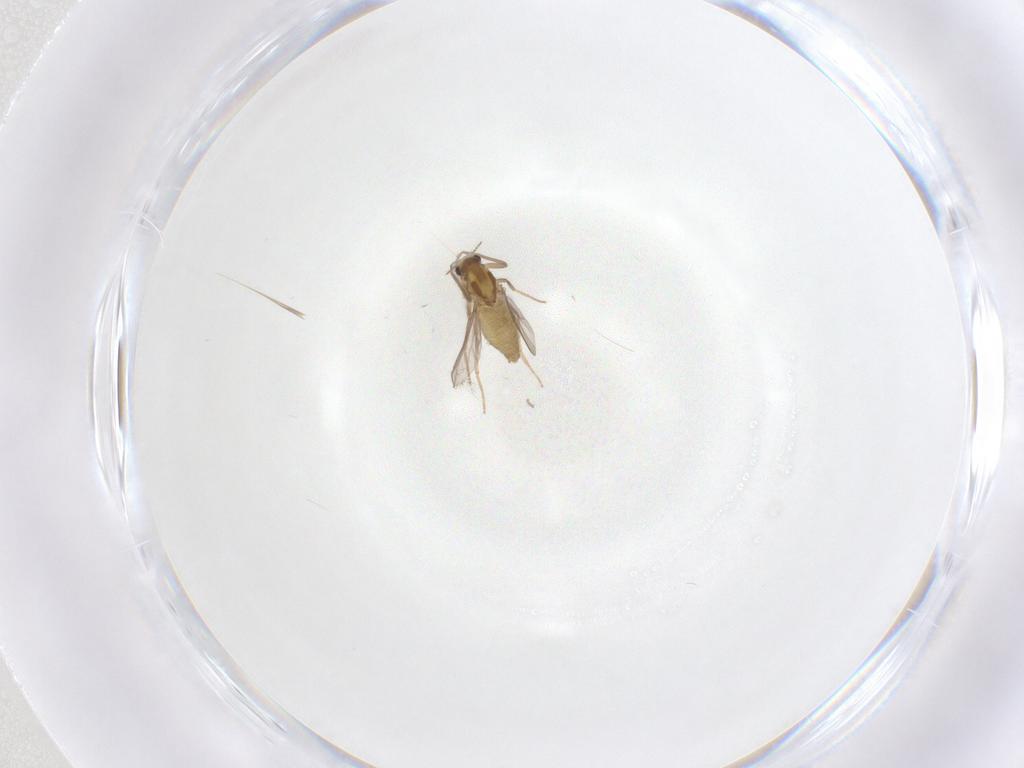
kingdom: Animalia
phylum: Arthropoda
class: Insecta
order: Diptera
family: Chironomidae
